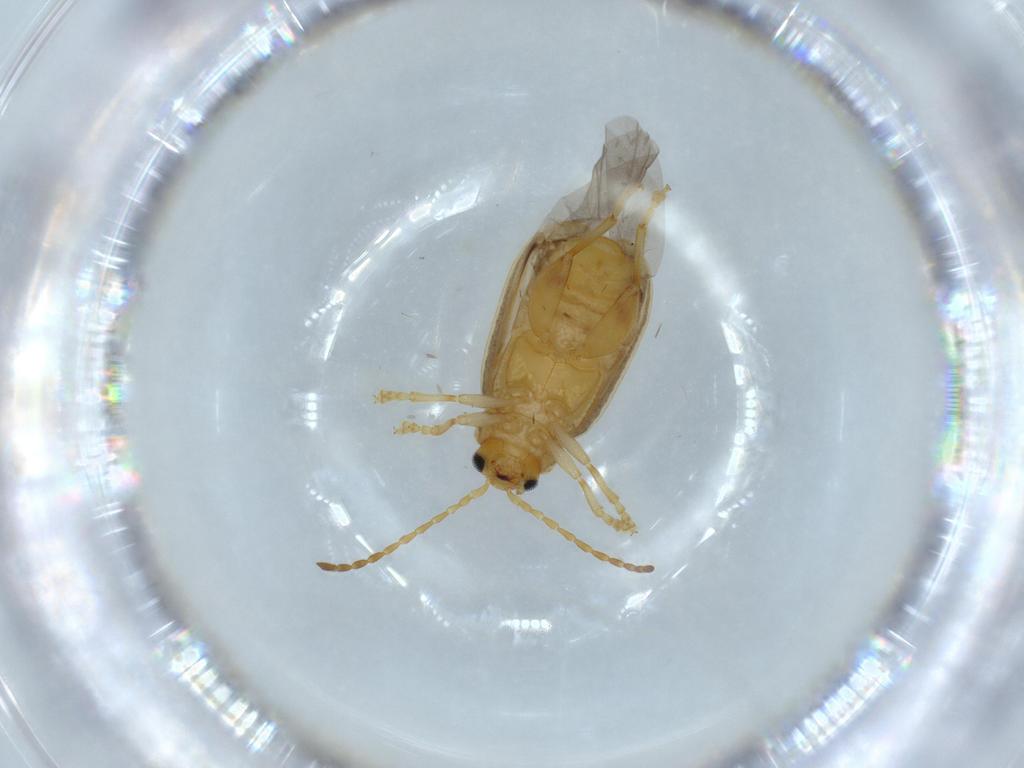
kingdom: Animalia
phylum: Arthropoda
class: Insecta
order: Coleoptera
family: Chrysomelidae
